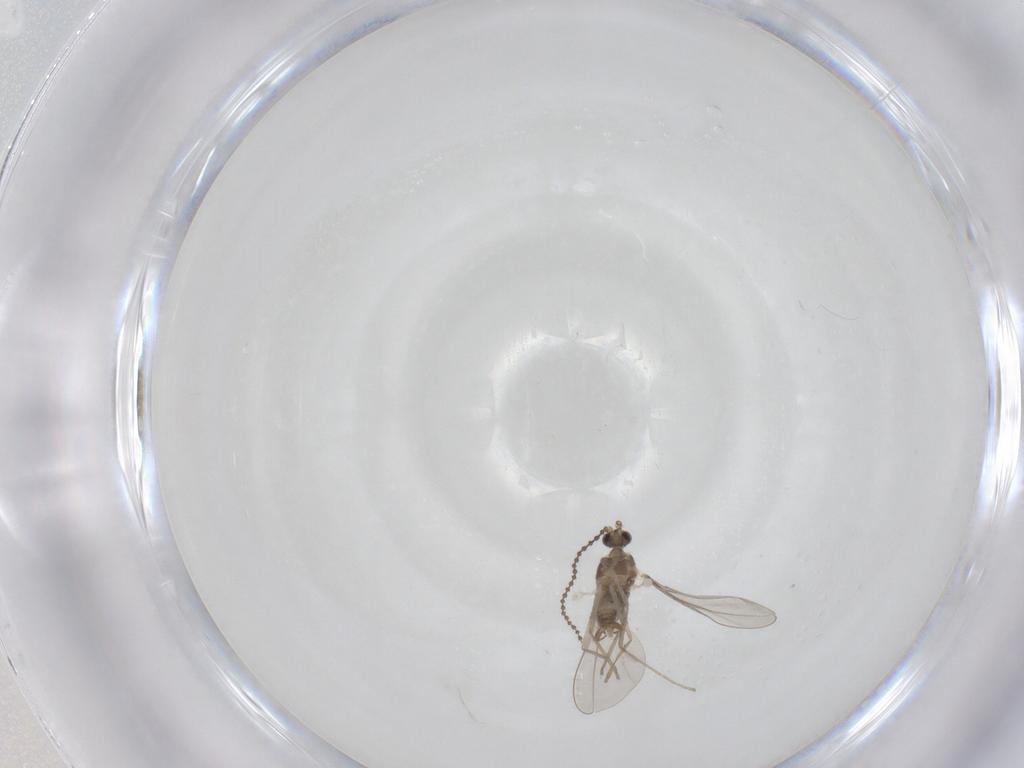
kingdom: Animalia
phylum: Arthropoda
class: Insecta
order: Diptera
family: Cecidomyiidae
